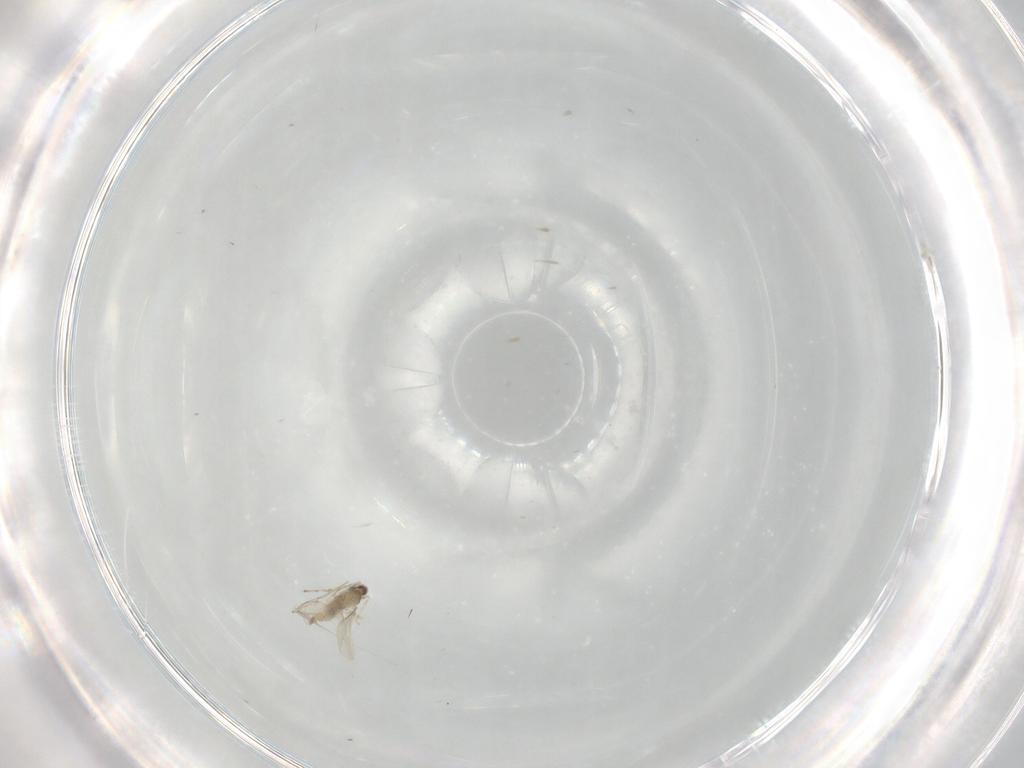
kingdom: Animalia
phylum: Arthropoda
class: Insecta
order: Diptera
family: Cecidomyiidae
